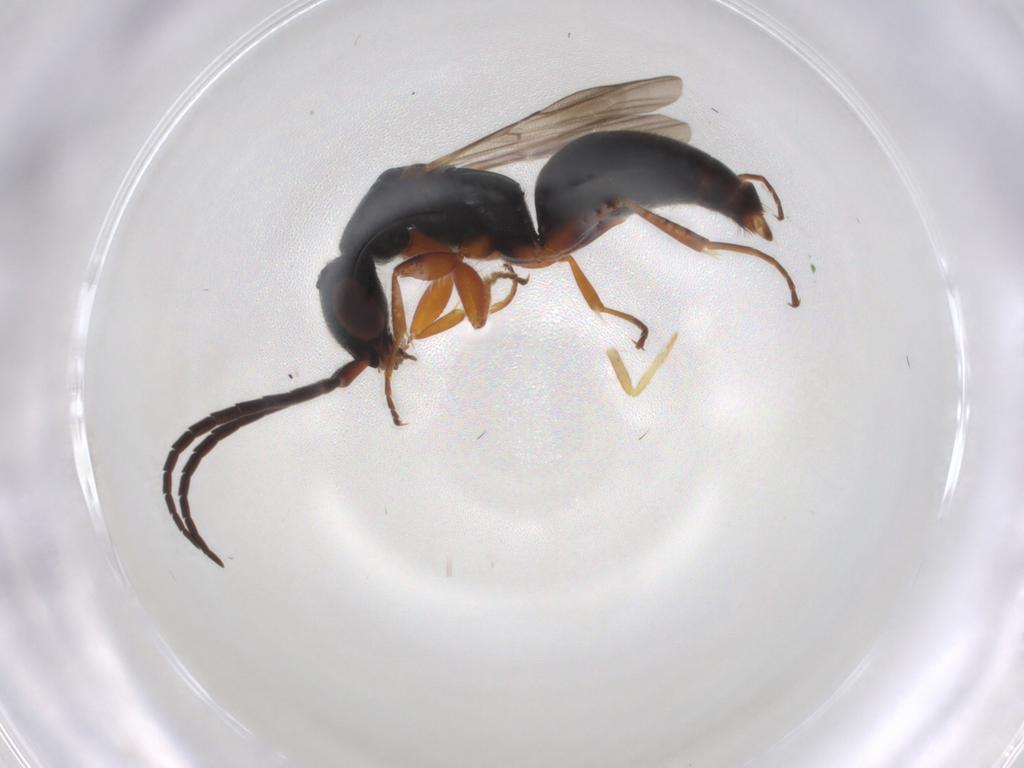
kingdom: Animalia
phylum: Arthropoda
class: Insecta
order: Hymenoptera
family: Bethylidae
